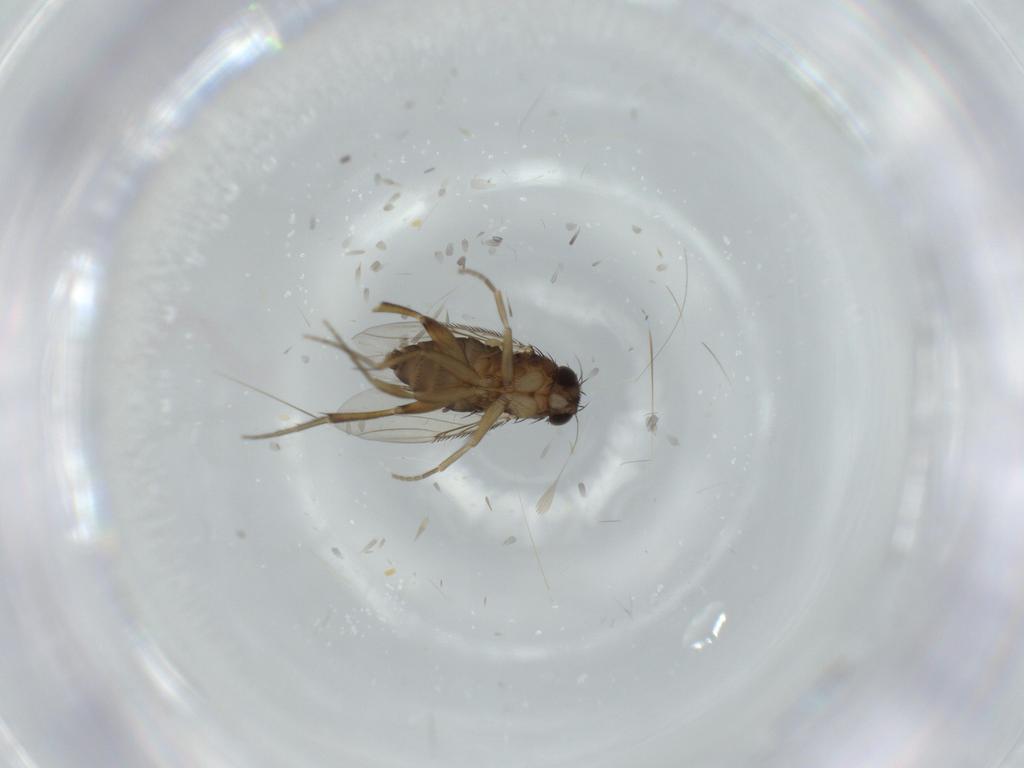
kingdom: Animalia
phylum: Arthropoda
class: Insecta
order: Diptera
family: Phoridae
